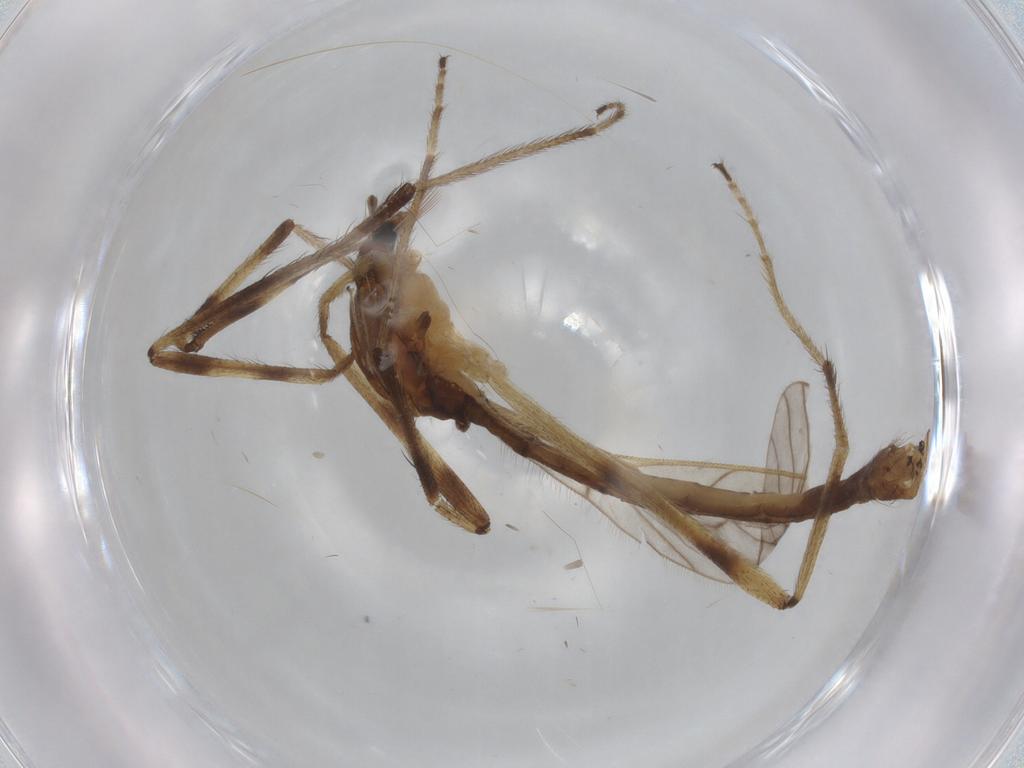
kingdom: Animalia
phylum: Arthropoda
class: Insecta
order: Diptera
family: Limoniidae
